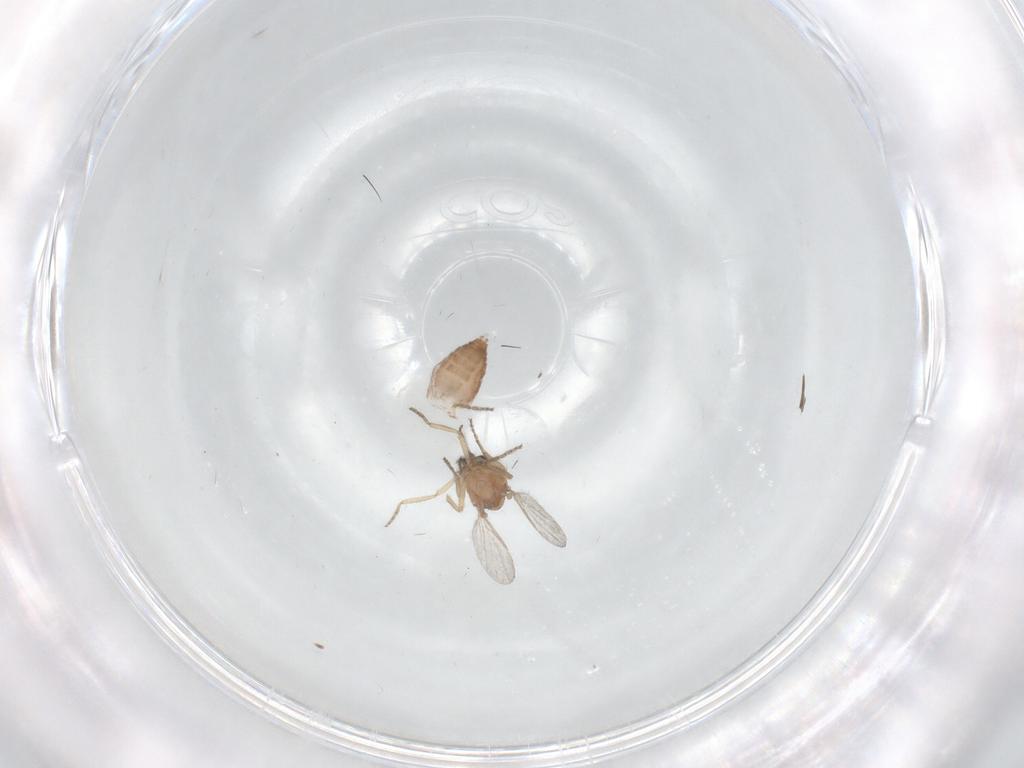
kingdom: Animalia
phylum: Arthropoda
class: Insecta
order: Diptera
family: Ceratopogonidae
